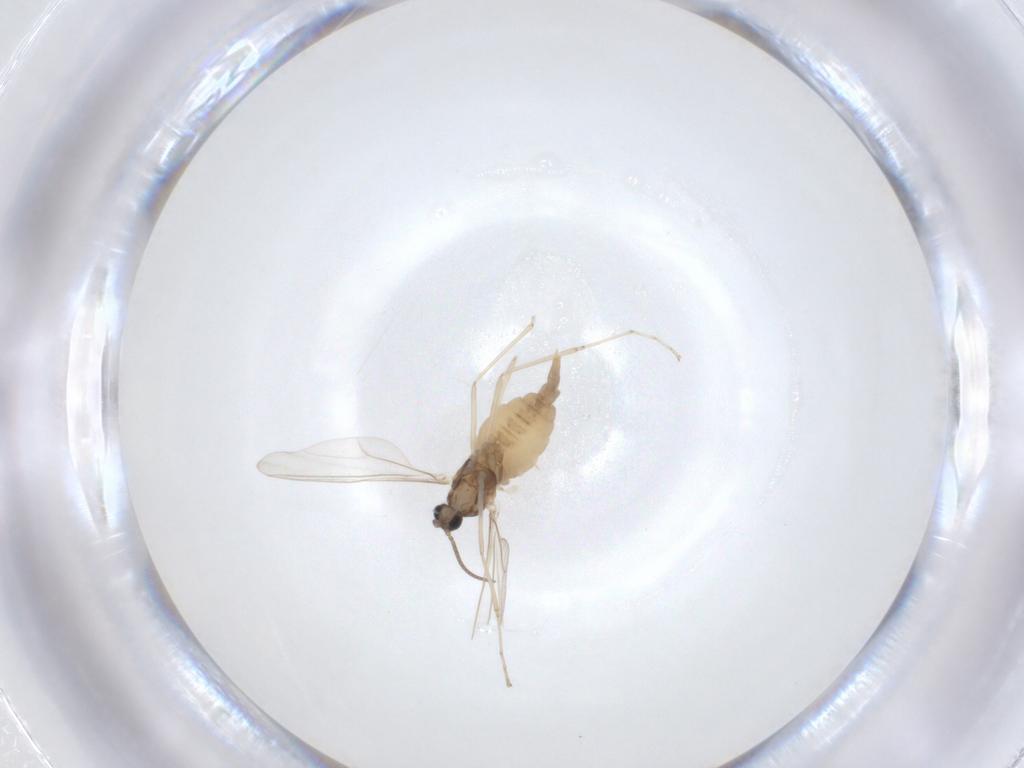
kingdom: Animalia
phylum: Arthropoda
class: Insecta
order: Diptera
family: Cecidomyiidae
